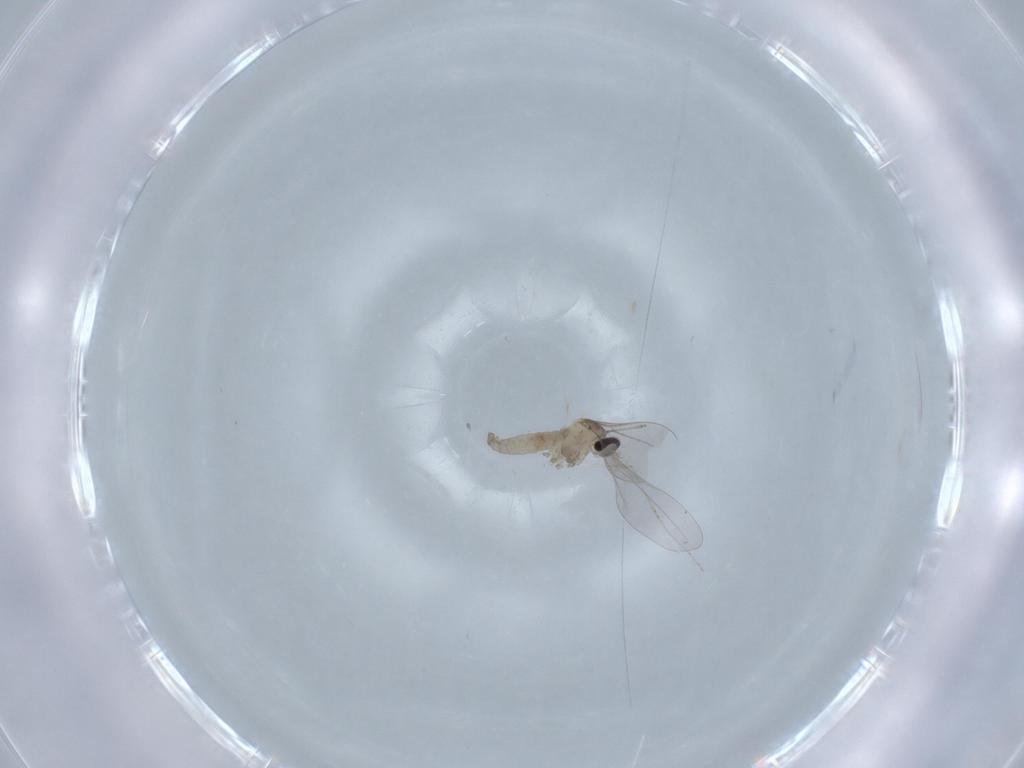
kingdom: Animalia
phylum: Arthropoda
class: Insecta
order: Diptera
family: Cecidomyiidae
